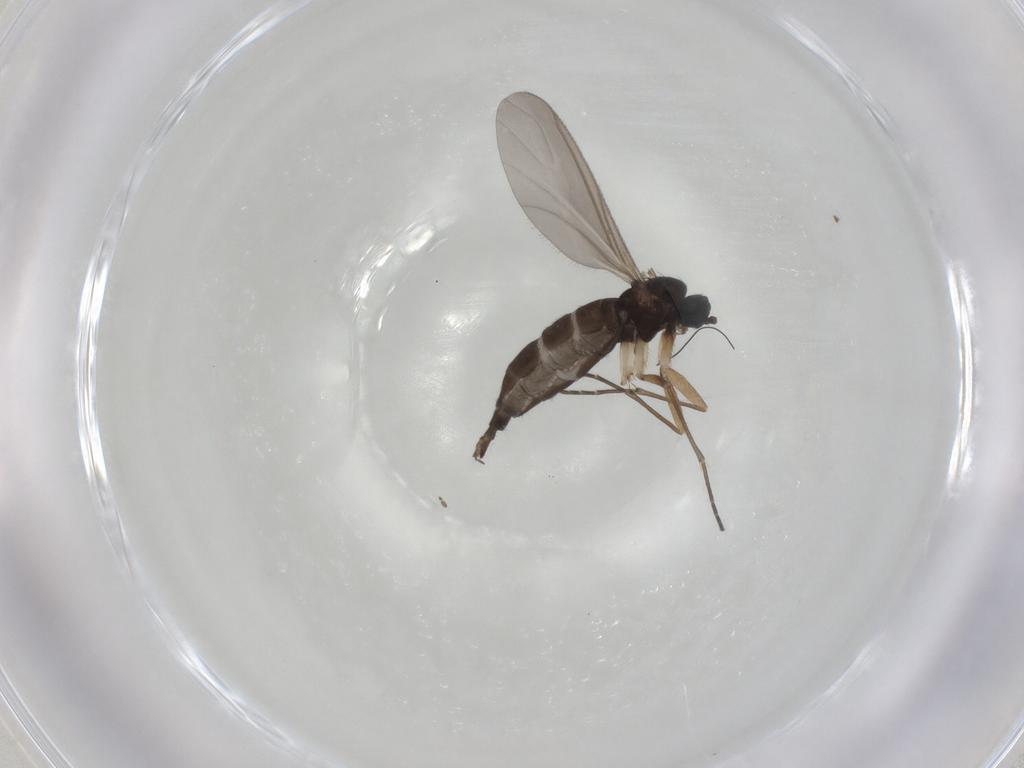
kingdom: Animalia
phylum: Arthropoda
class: Insecta
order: Diptera
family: Sciaridae
